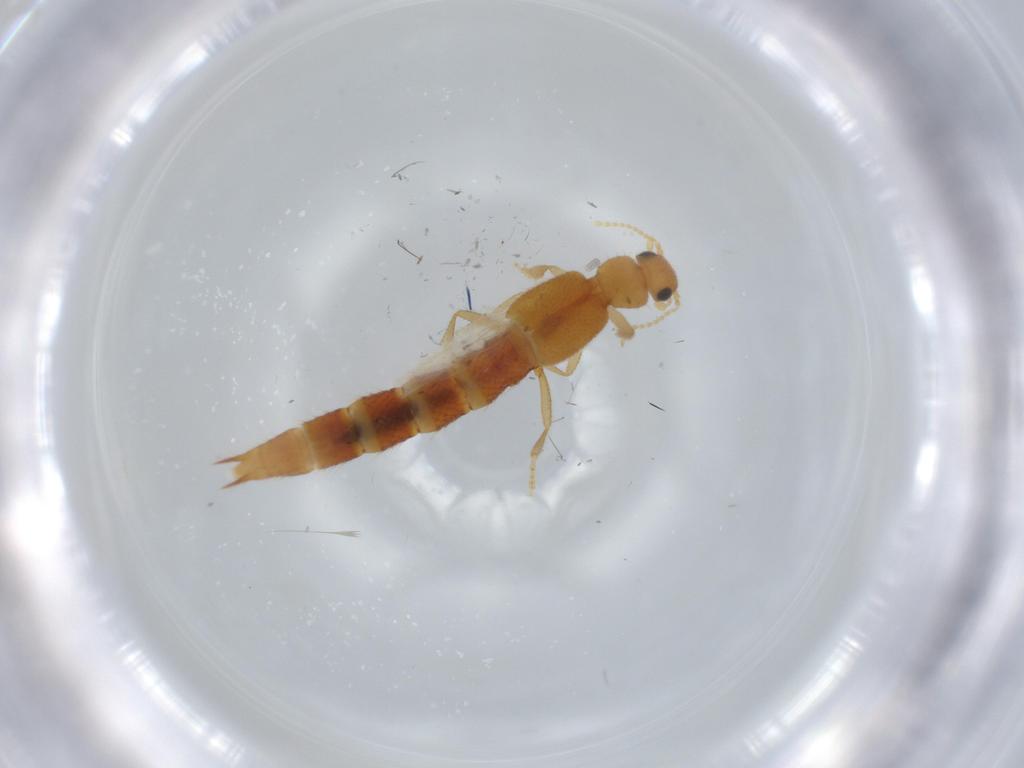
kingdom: Animalia
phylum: Arthropoda
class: Insecta
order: Coleoptera
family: Staphylinidae
